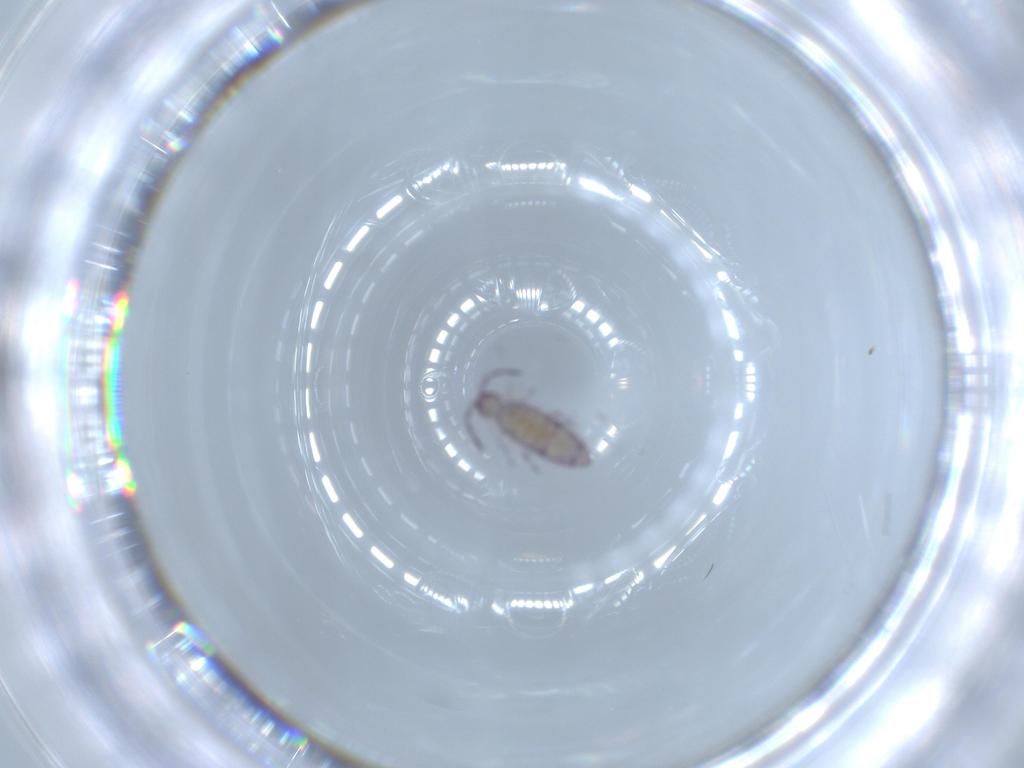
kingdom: Animalia
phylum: Arthropoda
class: Collembola
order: Entomobryomorpha
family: Entomobryidae
